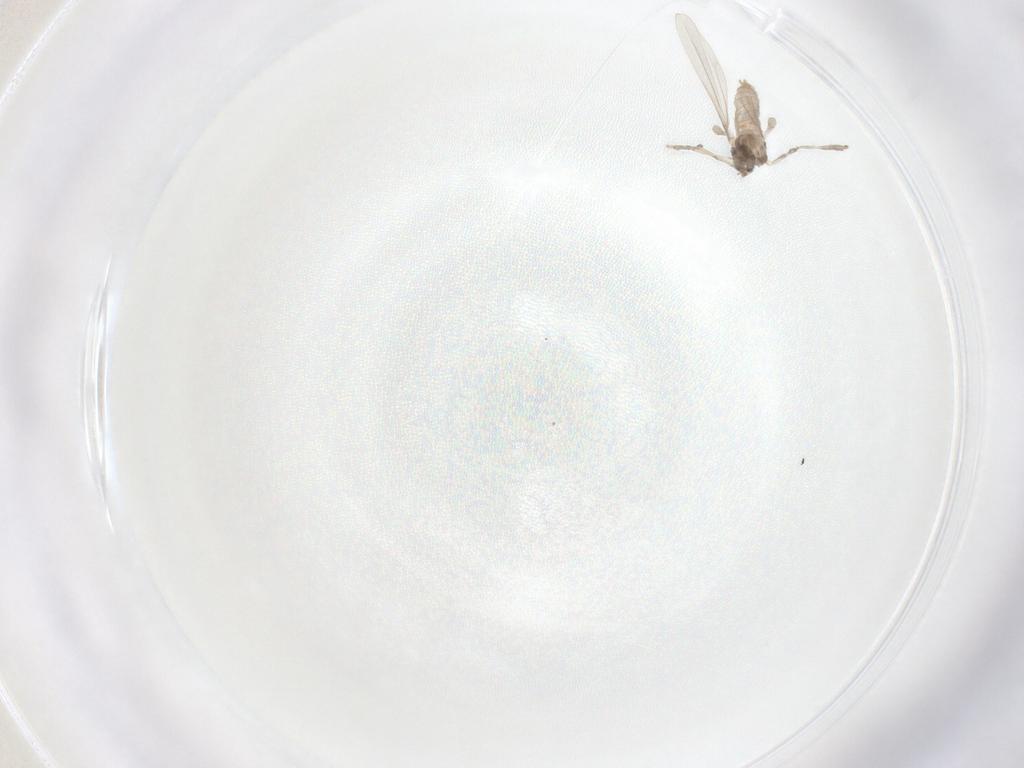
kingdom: Animalia
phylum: Arthropoda
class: Insecta
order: Diptera
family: Cecidomyiidae
